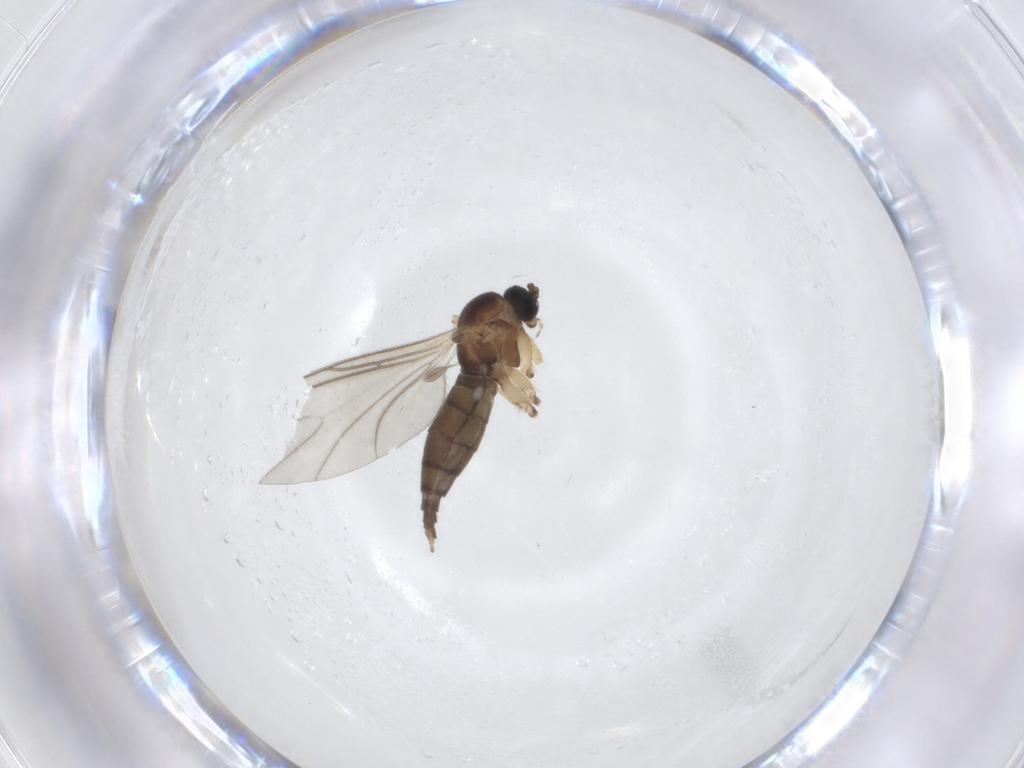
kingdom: Animalia
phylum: Arthropoda
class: Insecta
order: Diptera
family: Sciaridae
